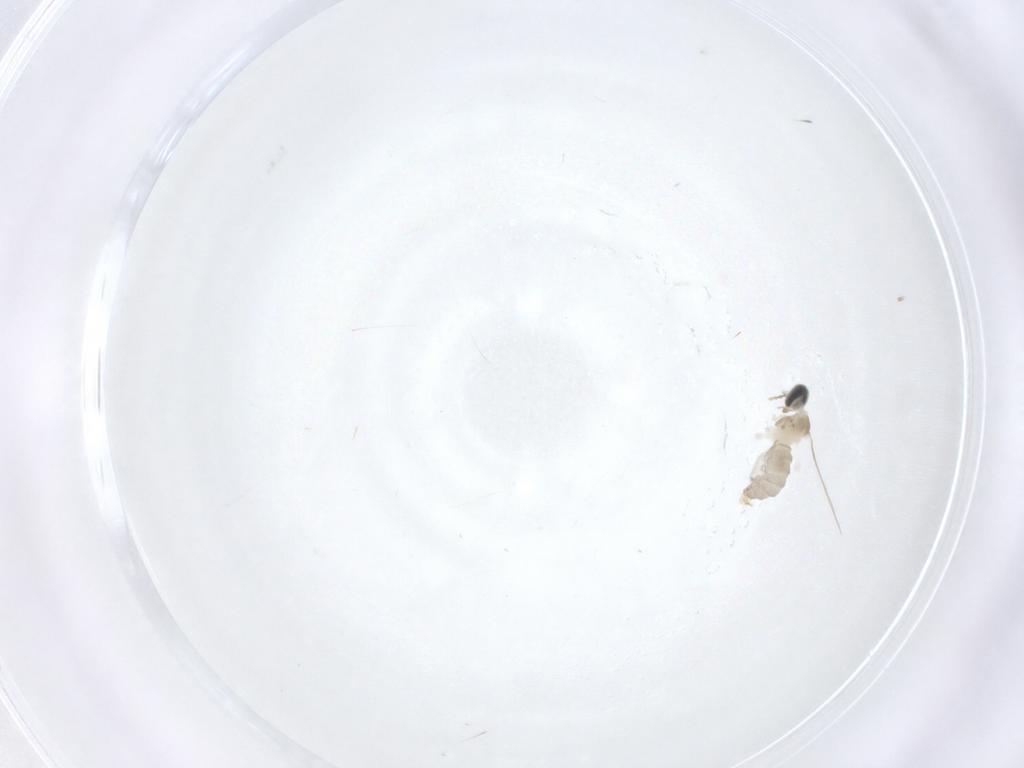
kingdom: Animalia
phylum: Arthropoda
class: Insecta
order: Diptera
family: Cecidomyiidae
